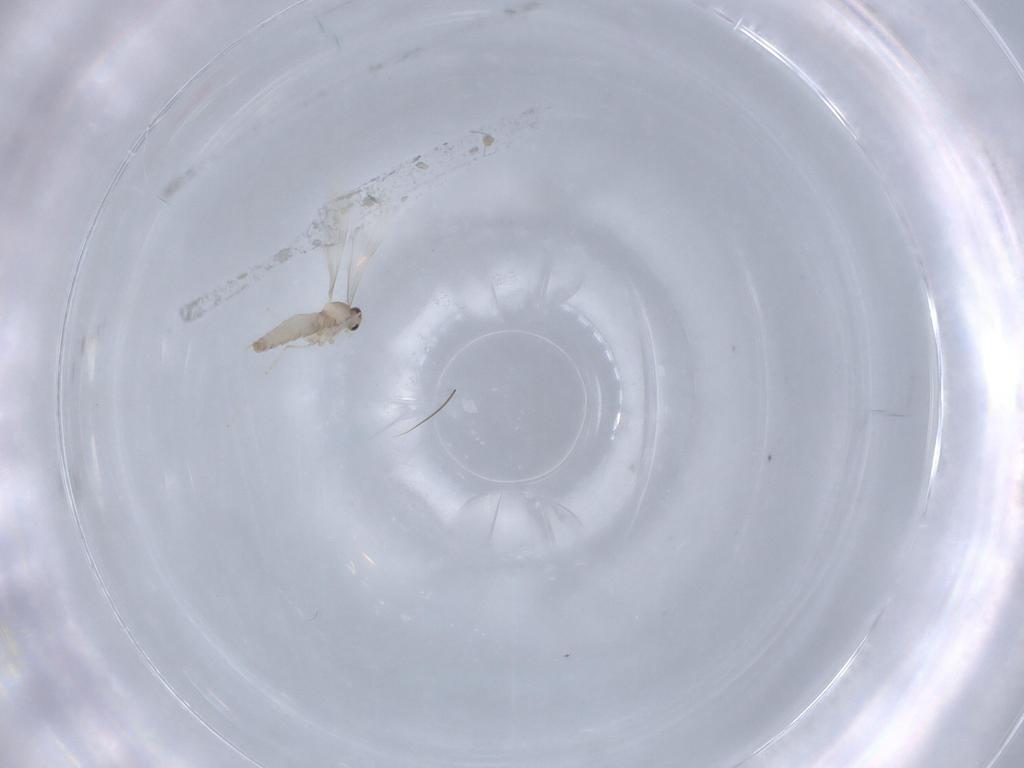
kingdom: Animalia
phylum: Arthropoda
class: Insecta
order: Diptera
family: Cecidomyiidae
